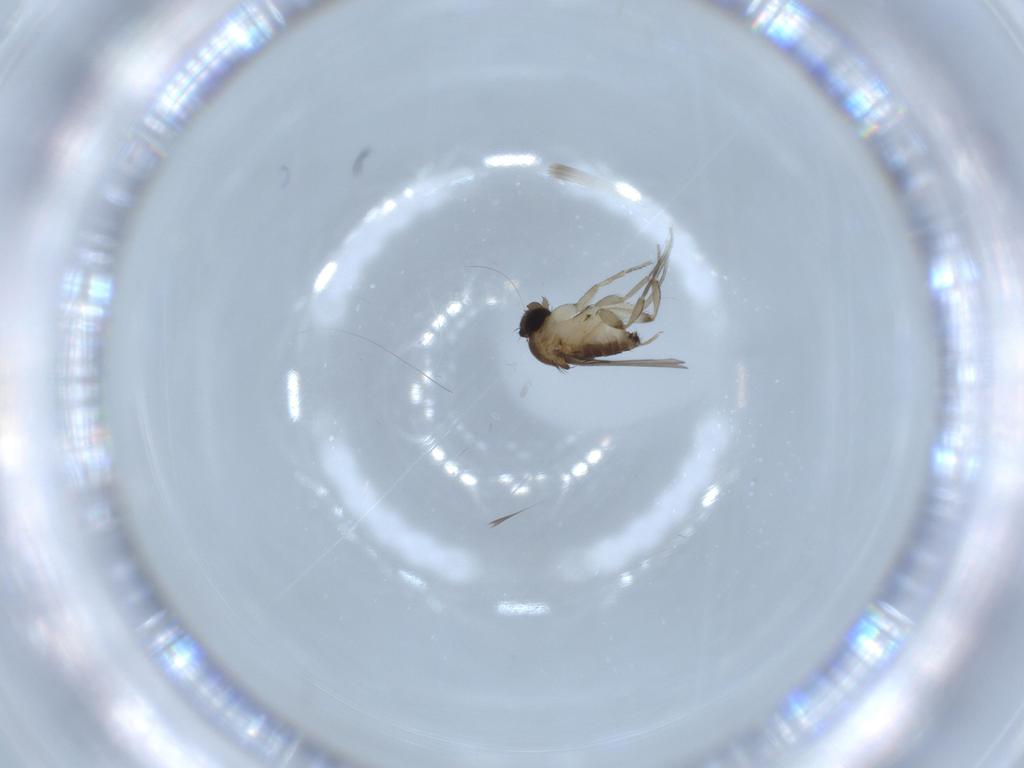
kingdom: Animalia
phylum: Arthropoda
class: Insecta
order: Diptera
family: Phoridae
